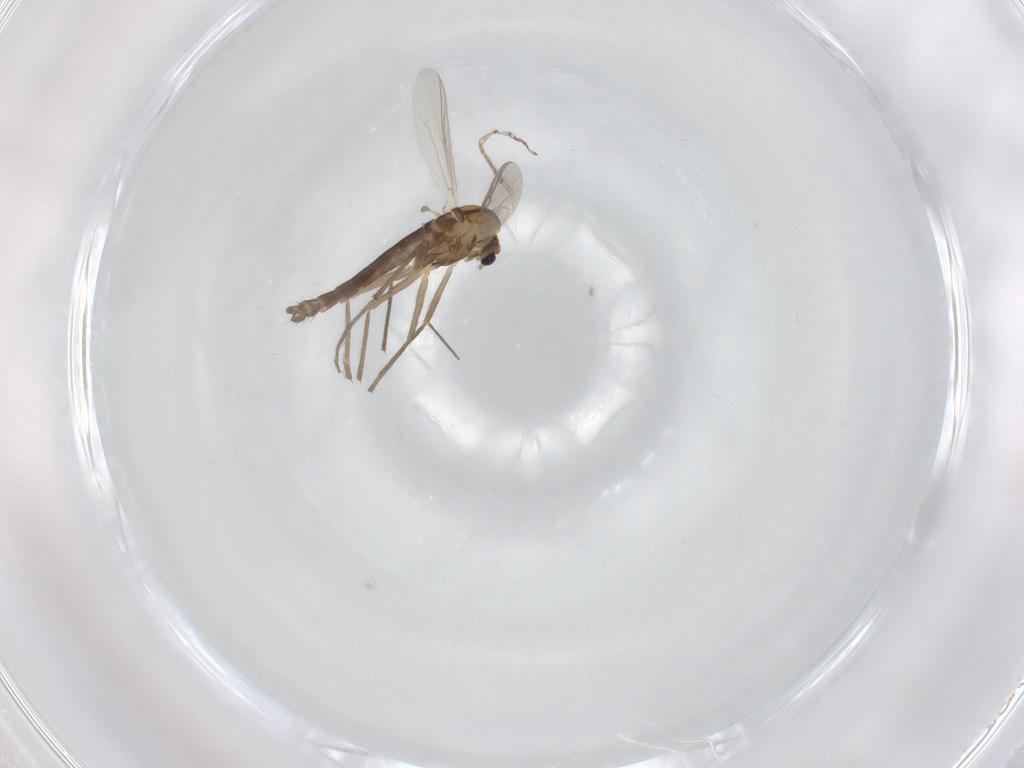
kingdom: Animalia
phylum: Arthropoda
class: Insecta
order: Diptera
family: Chironomidae
